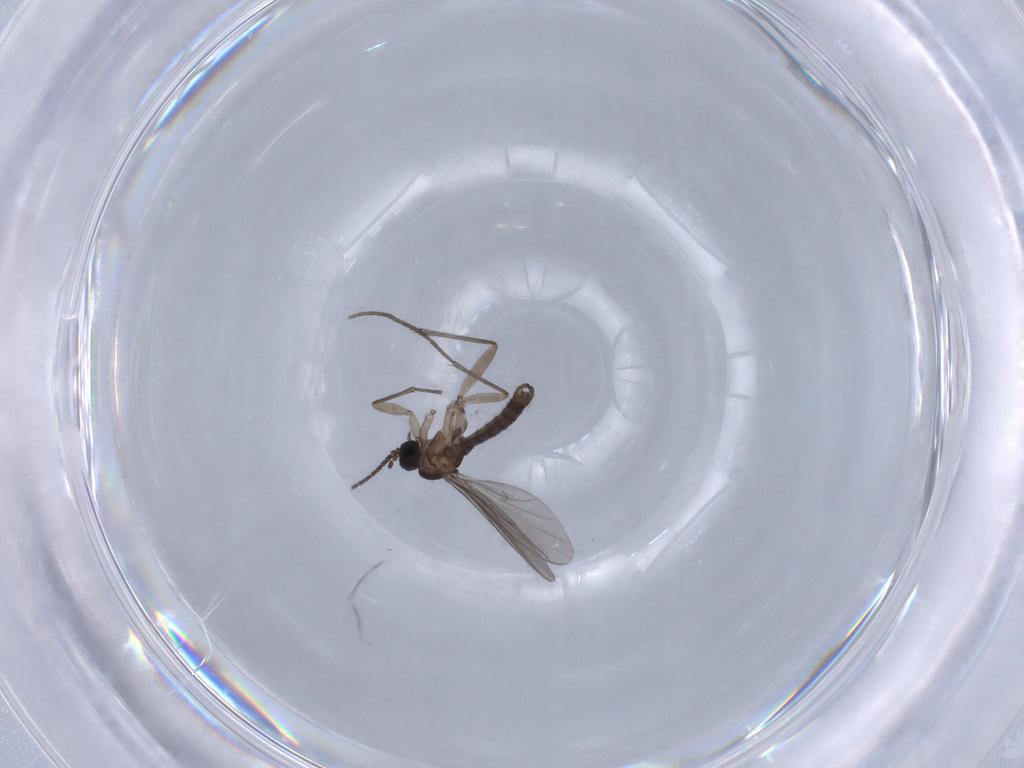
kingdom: Animalia
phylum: Arthropoda
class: Insecta
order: Diptera
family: Sciaridae
